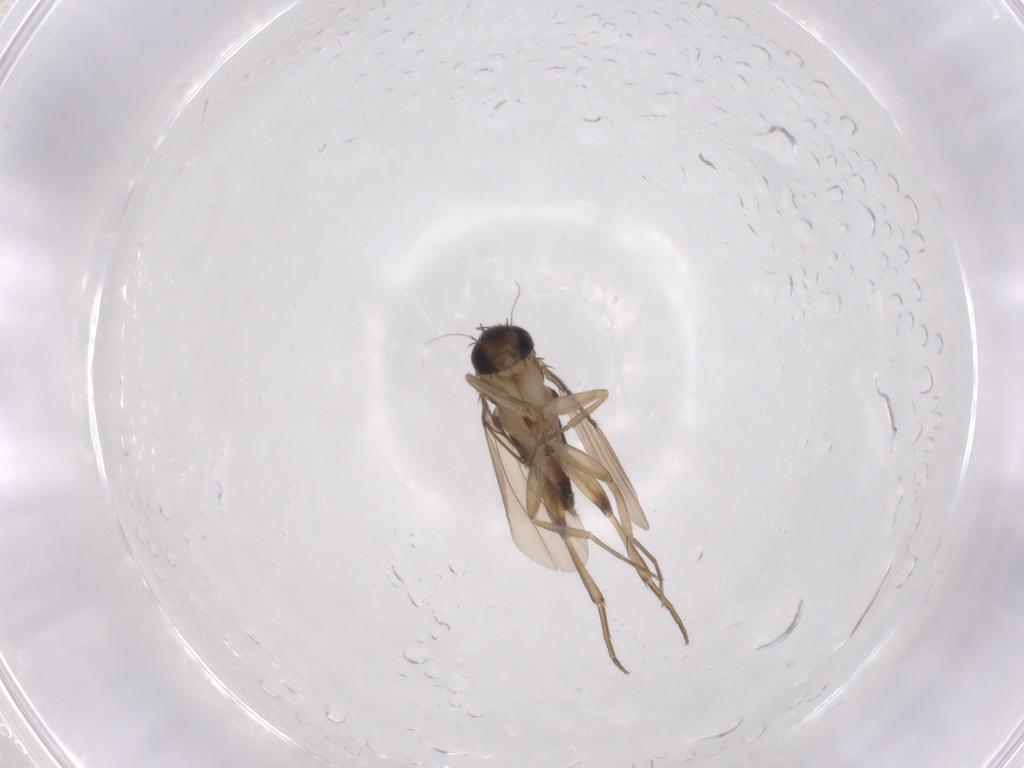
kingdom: Animalia
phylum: Arthropoda
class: Insecta
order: Diptera
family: Phoridae
